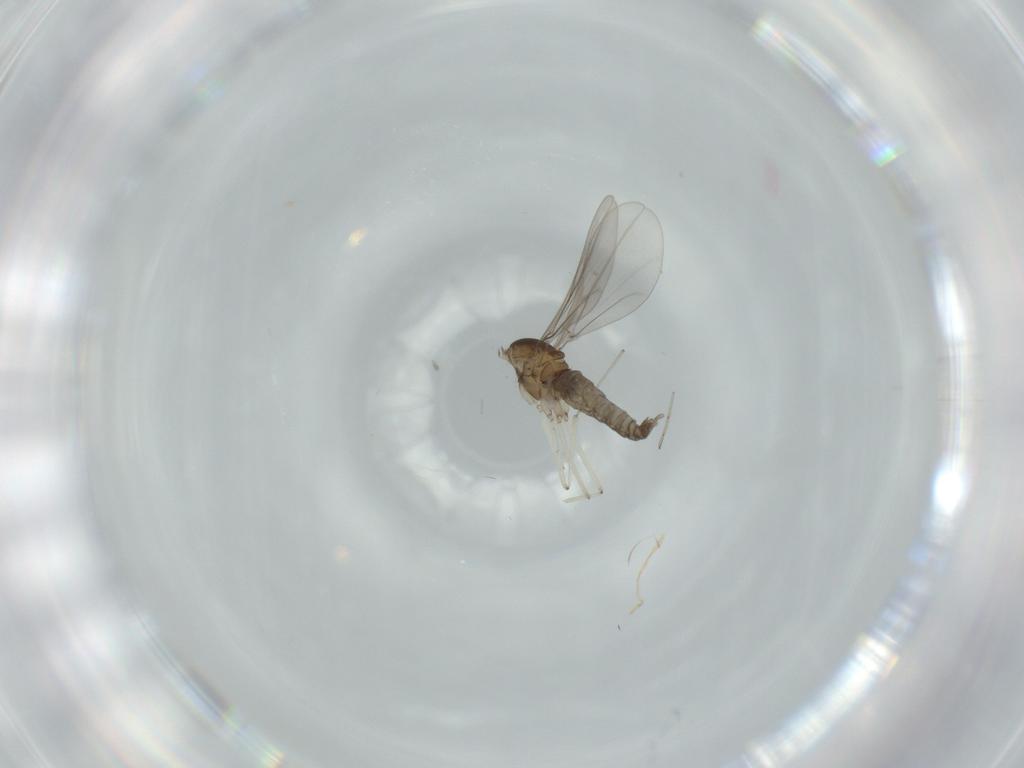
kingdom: Animalia
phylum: Arthropoda
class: Insecta
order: Diptera
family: Cecidomyiidae
